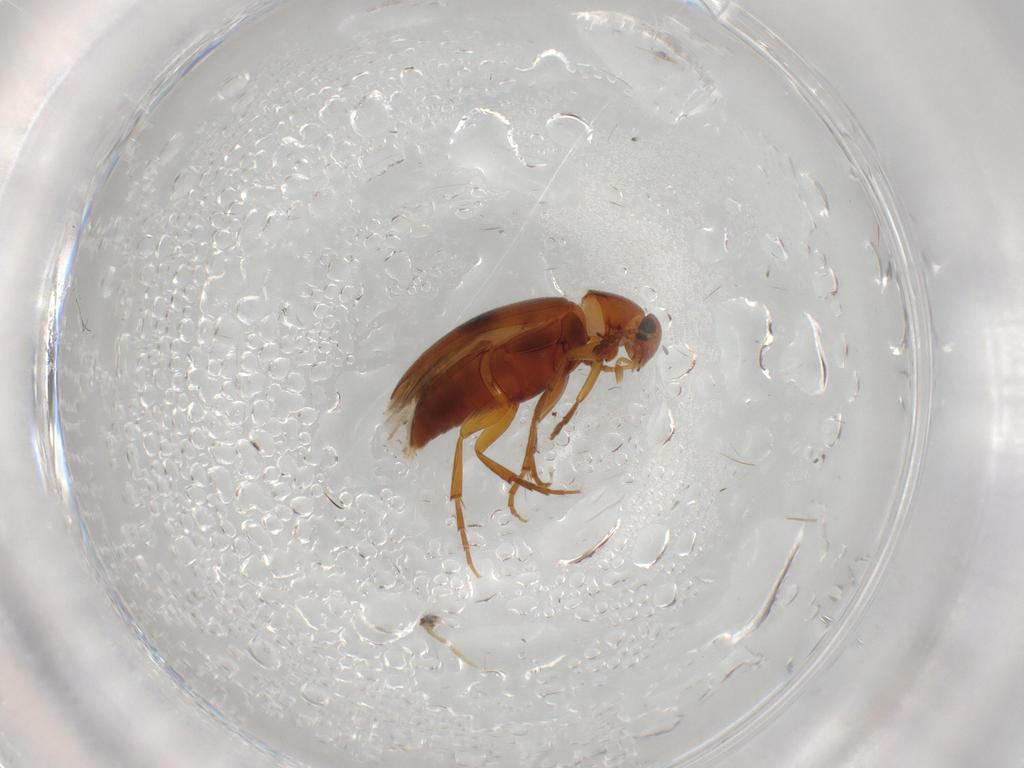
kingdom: Animalia
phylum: Arthropoda
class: Insecta
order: Coleoptera
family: Scraptiidae
